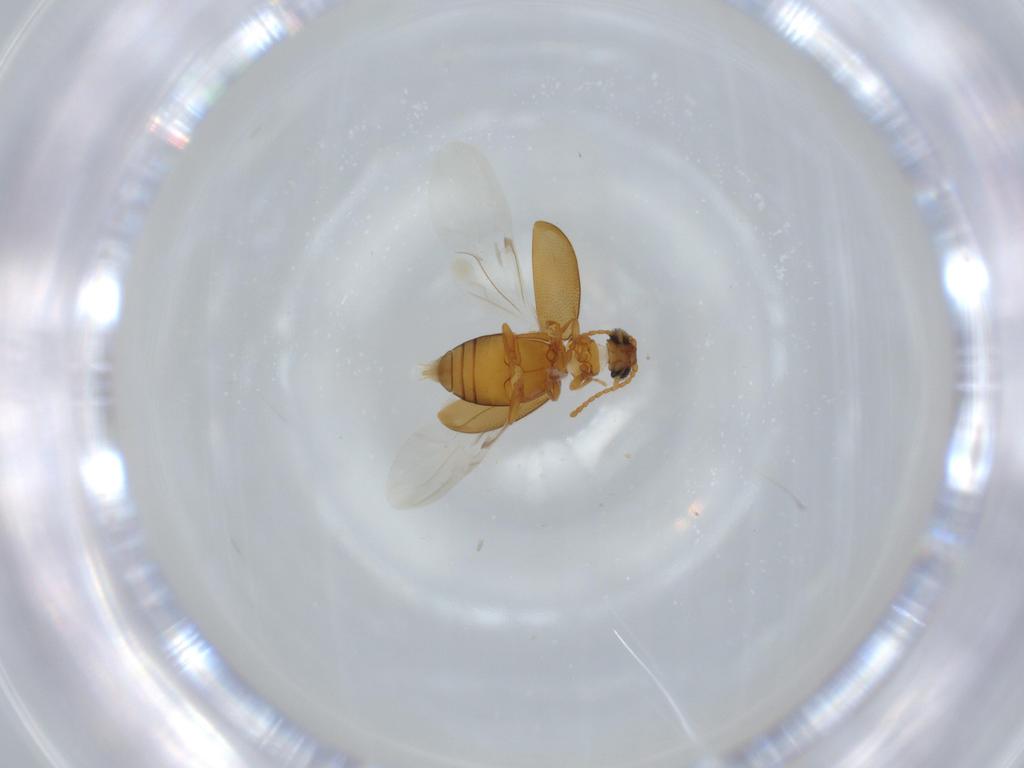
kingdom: Animalia
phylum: Arthropoda
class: Insecta
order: Coleoptera
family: Aderidae
